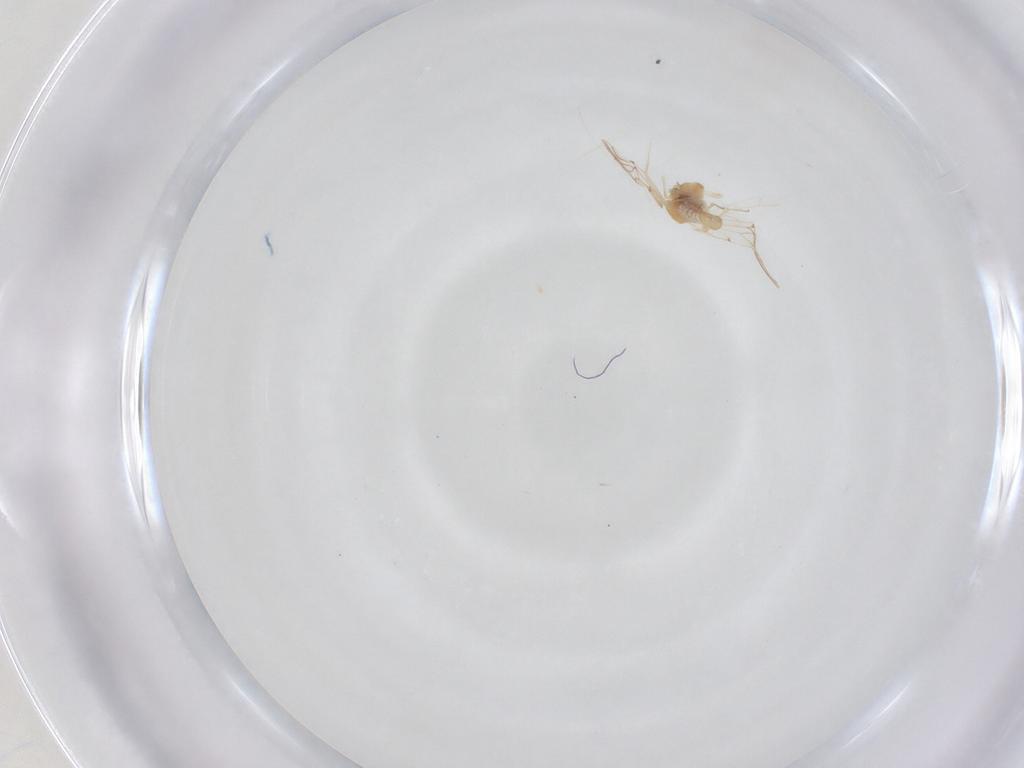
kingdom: Animalia
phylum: Arthropoda
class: Insecta
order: Psocodea
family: Lachesillidae
